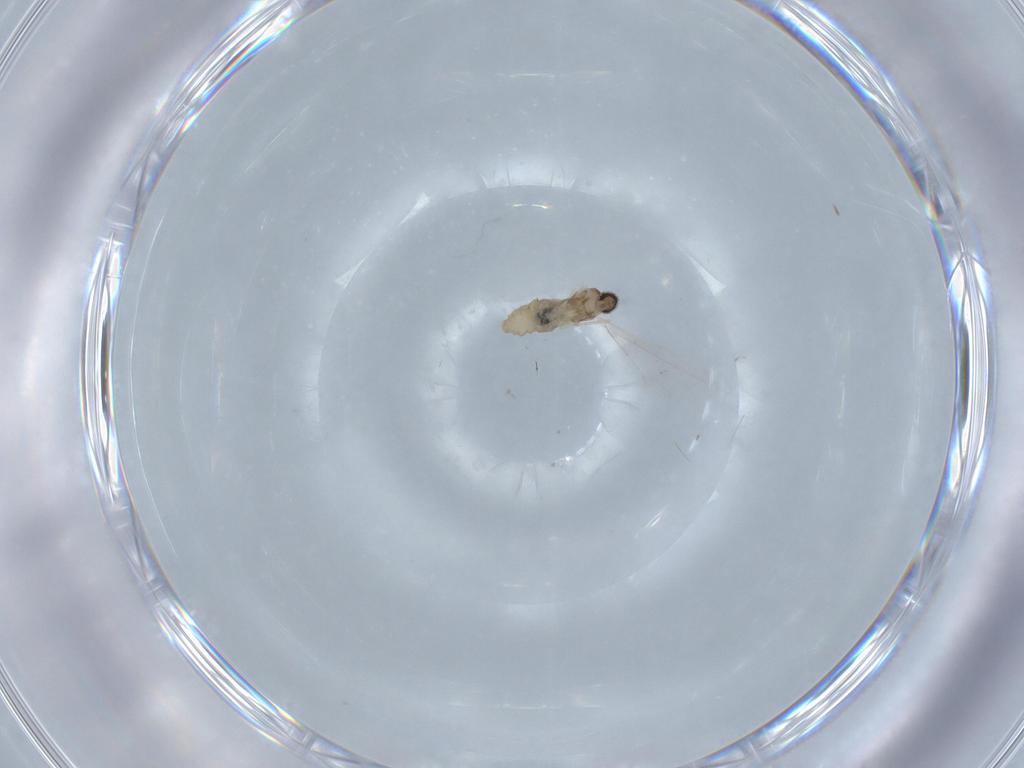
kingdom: Animalia
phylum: Arthropoda
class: Insecta
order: Diptera
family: Cecidomyiidae
